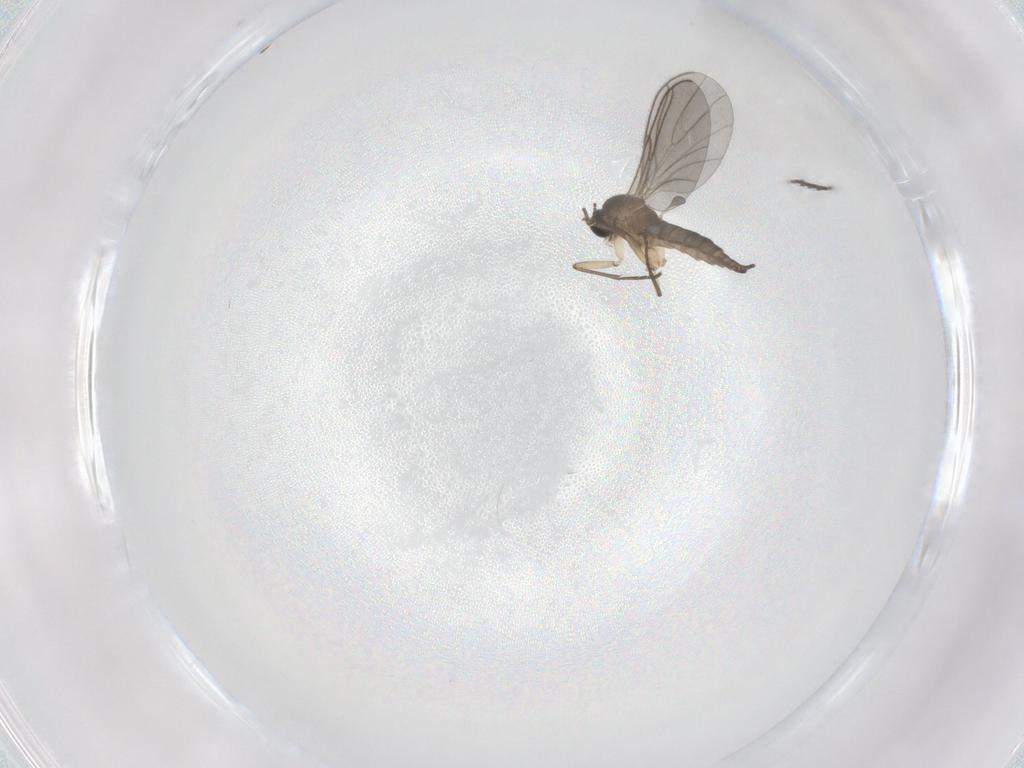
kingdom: Animalia
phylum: Arthropoda
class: Insecta
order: Diptera
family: Sciaridae
